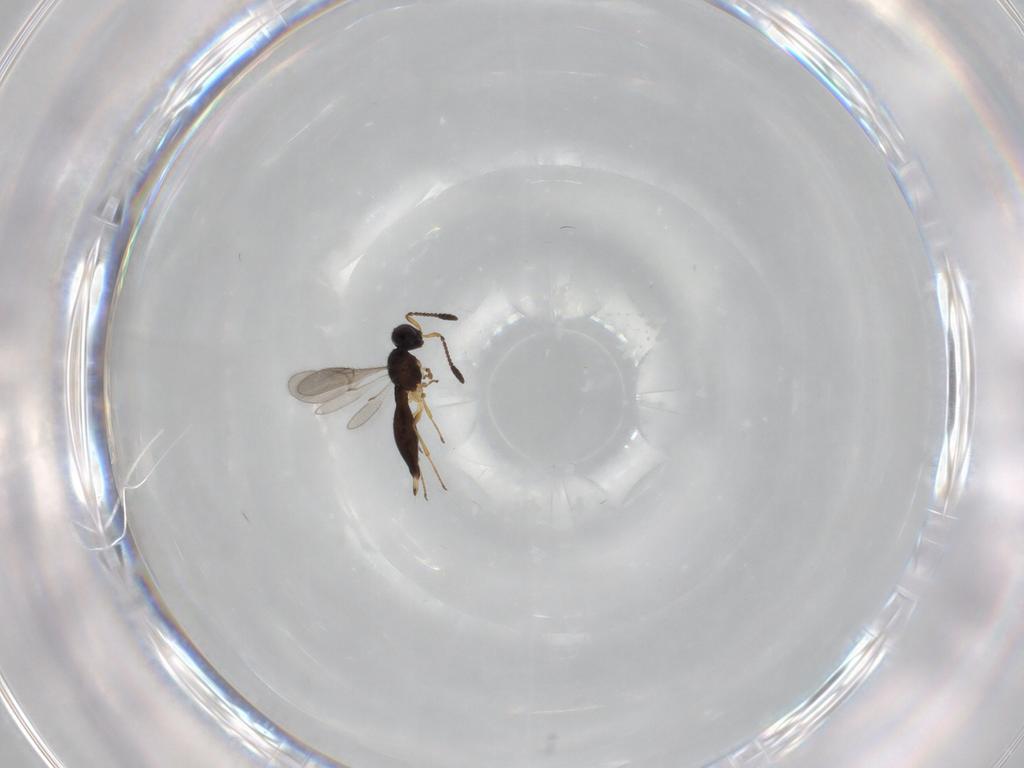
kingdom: Animalia
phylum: Arthropoda
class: Insecta
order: Hymenoptera
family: Scelionidae
